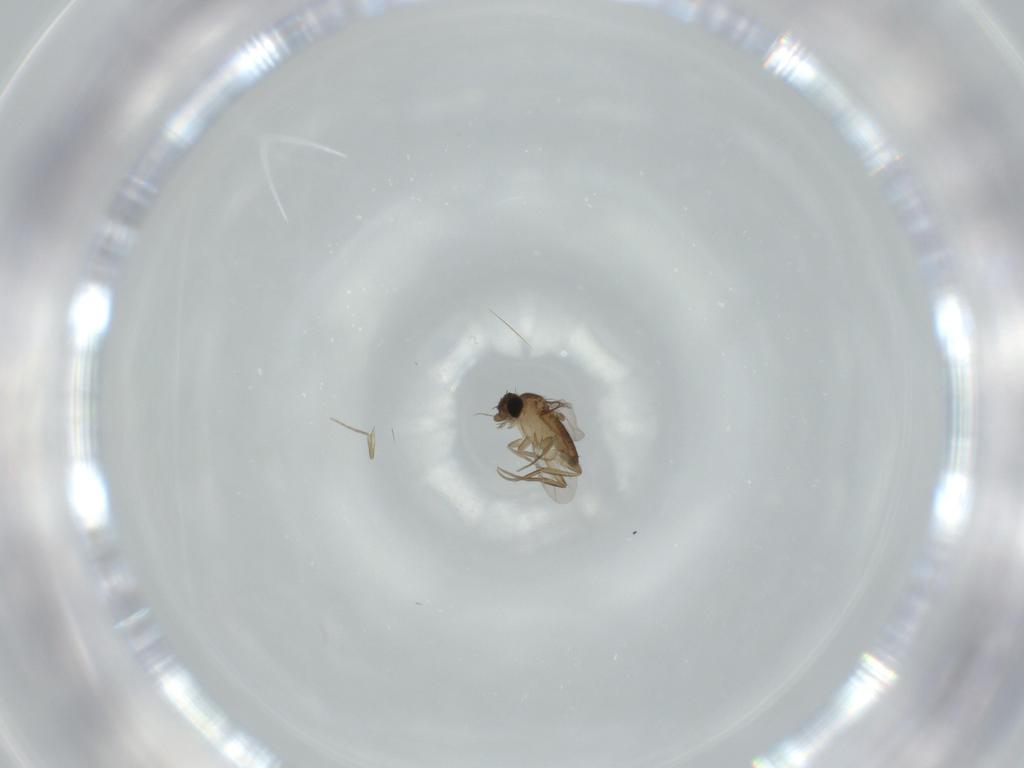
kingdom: Animalia
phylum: Arthropoda
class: Insecta
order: Diptera
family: Phoridae
